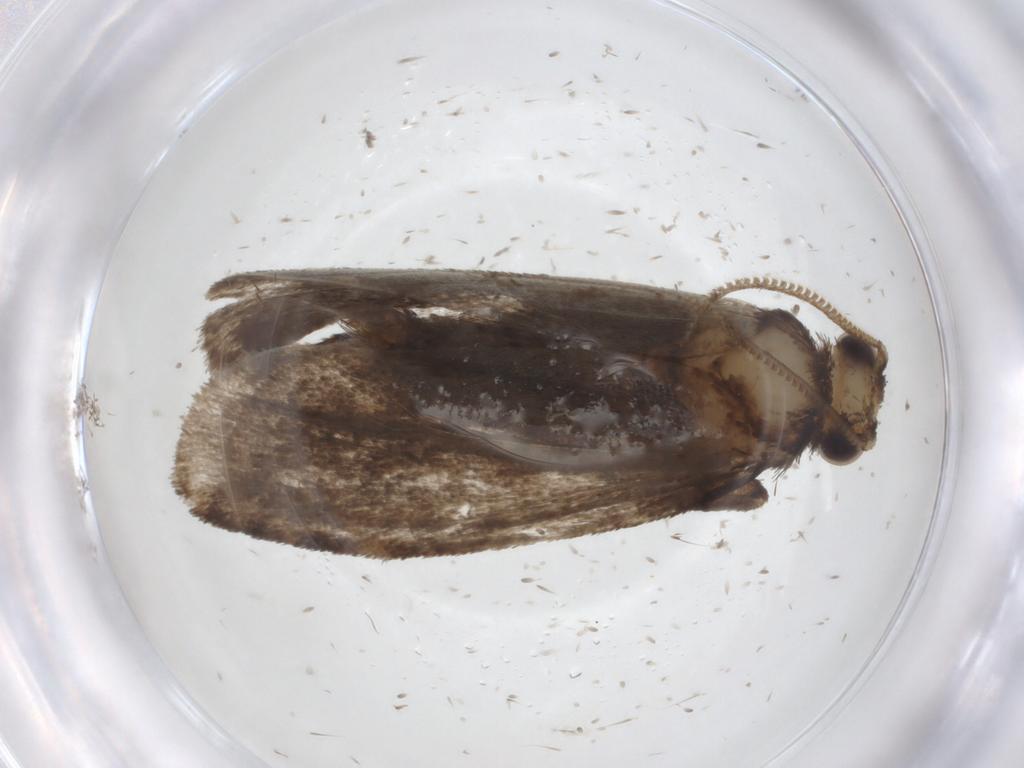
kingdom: Animalia
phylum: Arthropoda
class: Insecta
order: Lepidoptera
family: Tineidae
